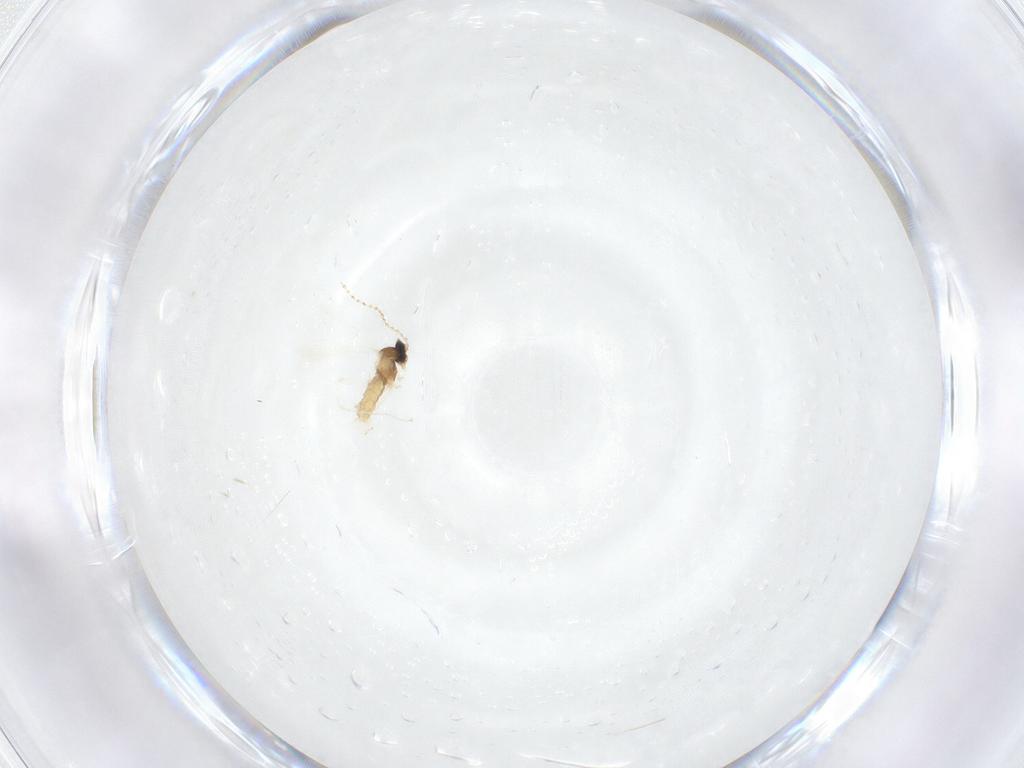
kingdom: Animalia
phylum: Arthropoda
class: Insecta
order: Diptera
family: Cecidomyiidae
